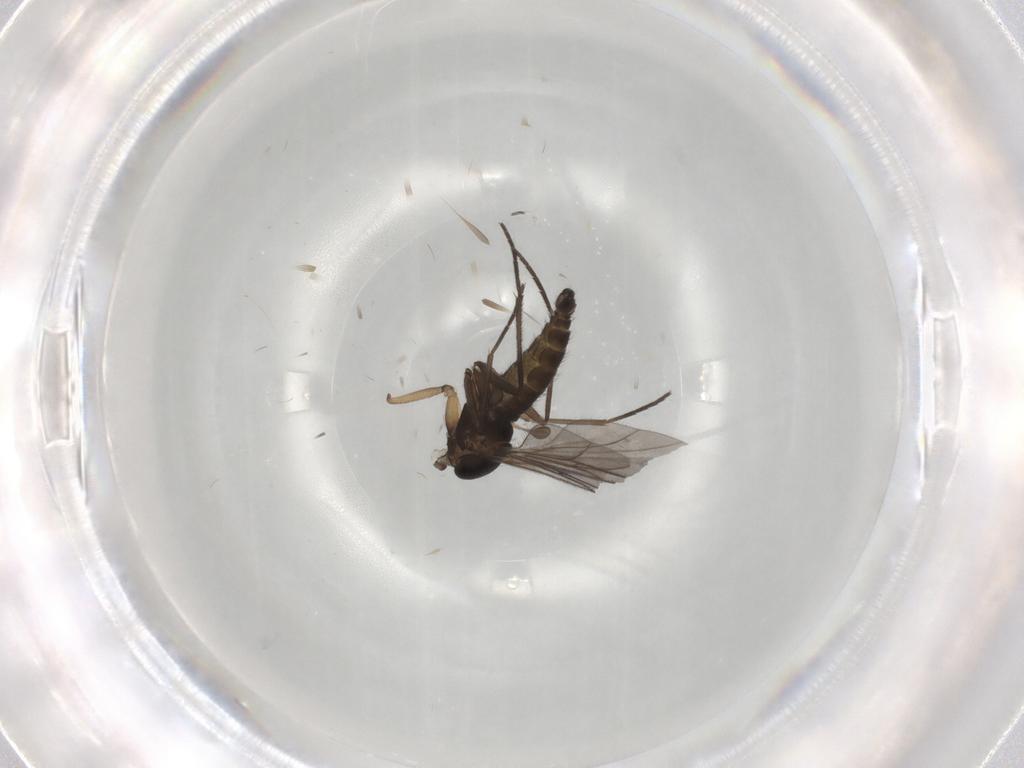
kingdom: Animalia
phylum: Arthropoda
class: Insecta
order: Diptera
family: Sciaridae
